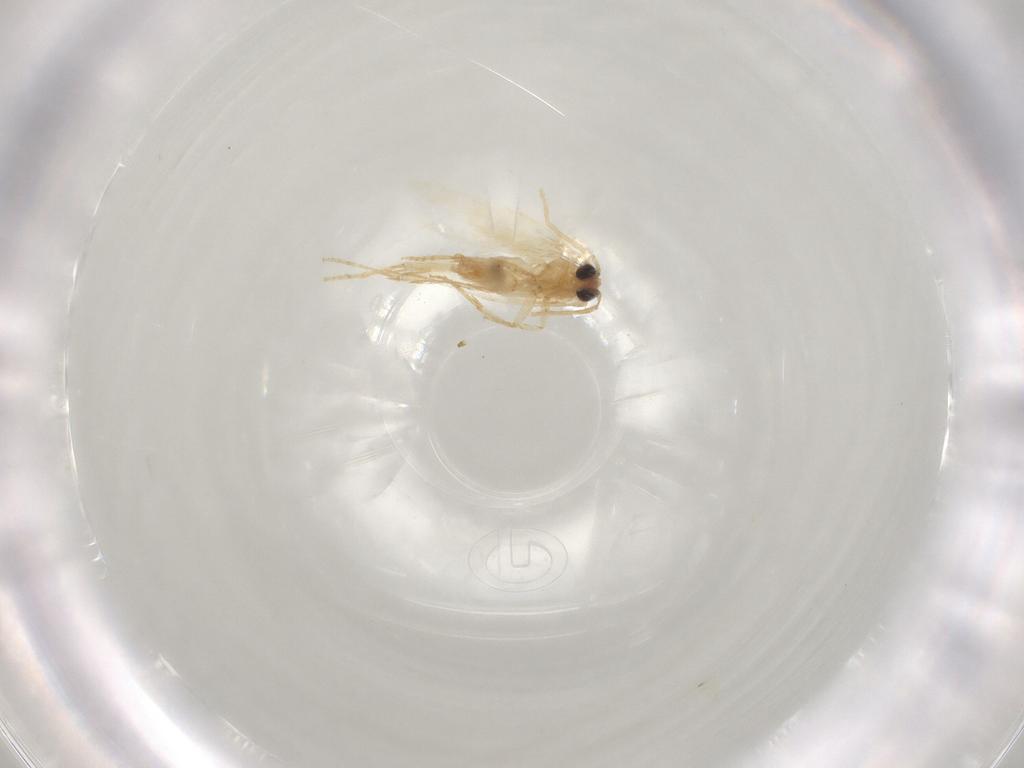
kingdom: Animalia
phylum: Arthropoda
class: Insecta
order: Lepidoptera
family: Nepticulidae
